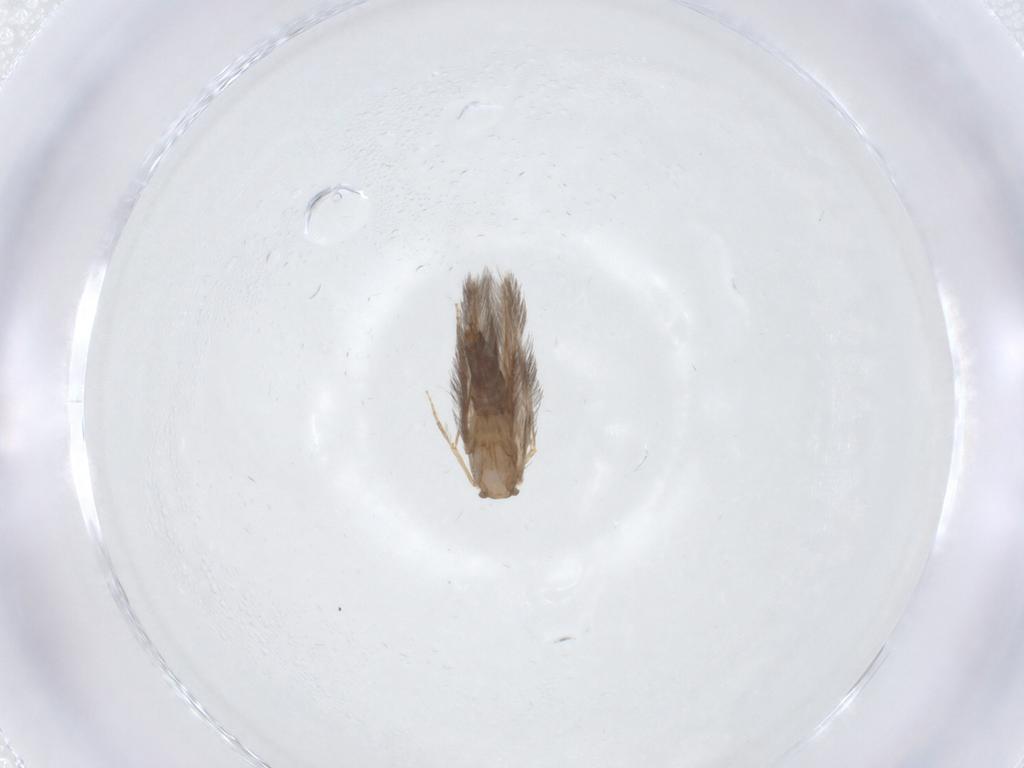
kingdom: Animalia
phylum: Arthropoda
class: Insecta
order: Trichoptera
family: Hydroptilidae
